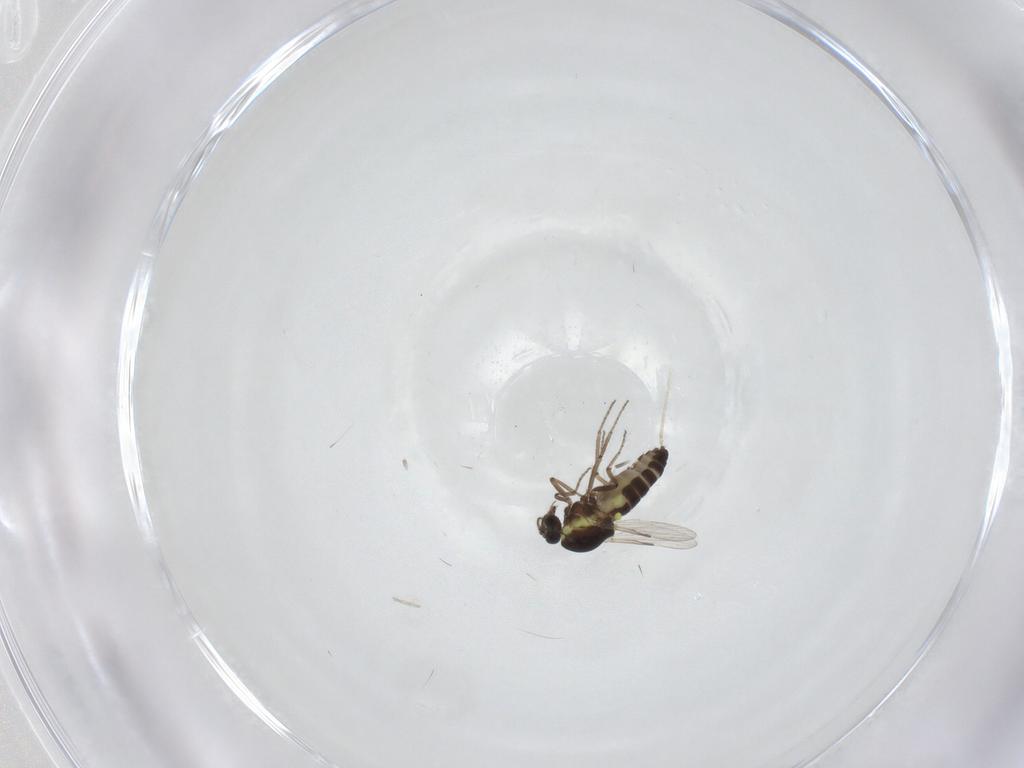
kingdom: Animalia
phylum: Arthropoda
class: Insecta
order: Diptera
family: Ceratopogonidae
